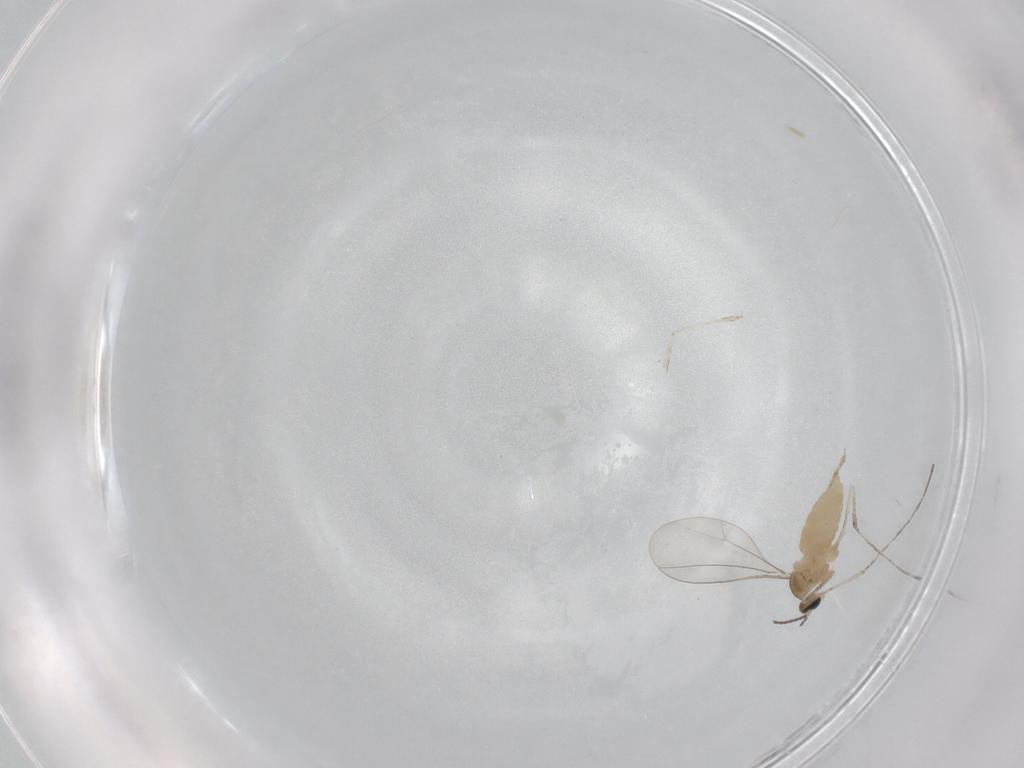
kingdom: Animalia
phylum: Arthropoda
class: Insecta
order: Diptera
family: Cecidomyiidae
